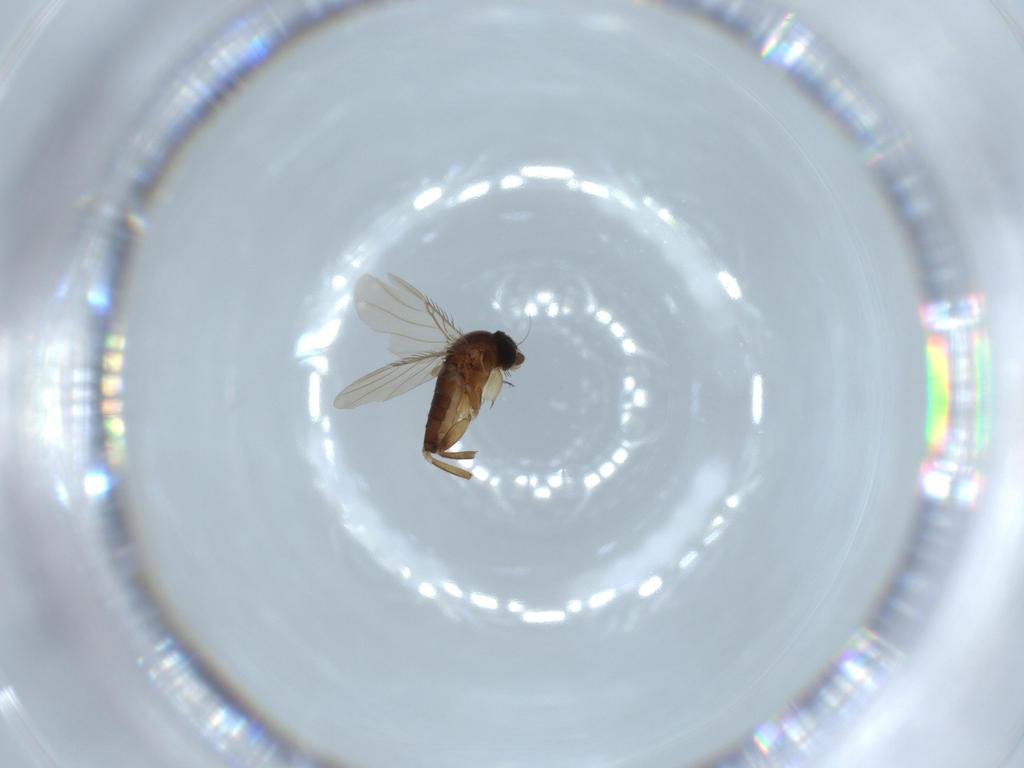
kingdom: Animalia
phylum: Arthropoda
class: Insecta
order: Diptera
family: Phoridae
